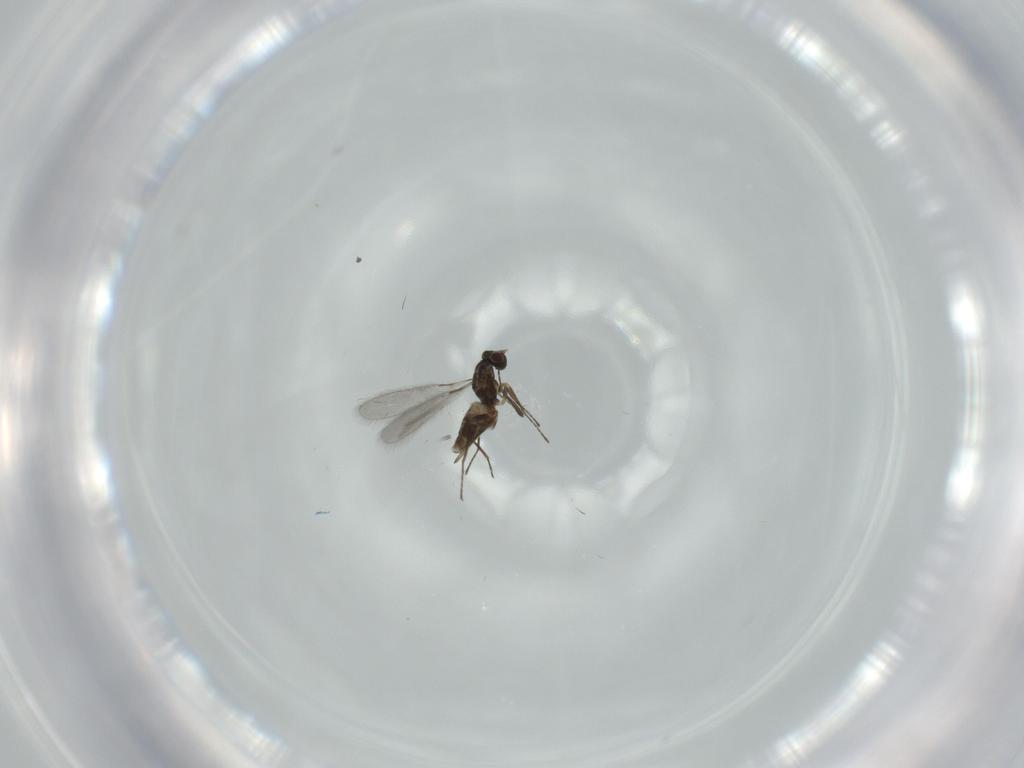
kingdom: Animalia
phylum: Arthropoda
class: Insecta
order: Hymenoptera
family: Mymaridae
